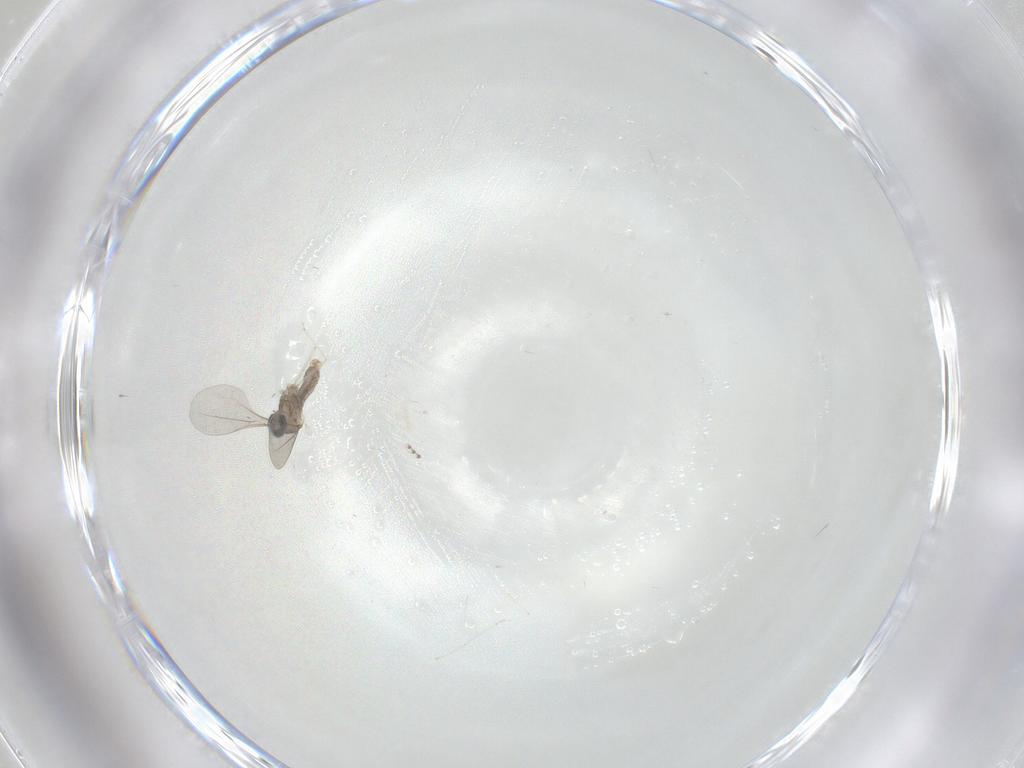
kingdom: Animalia
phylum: Arthropoda
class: Insecta
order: Diptera
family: Cecidomyiidae
